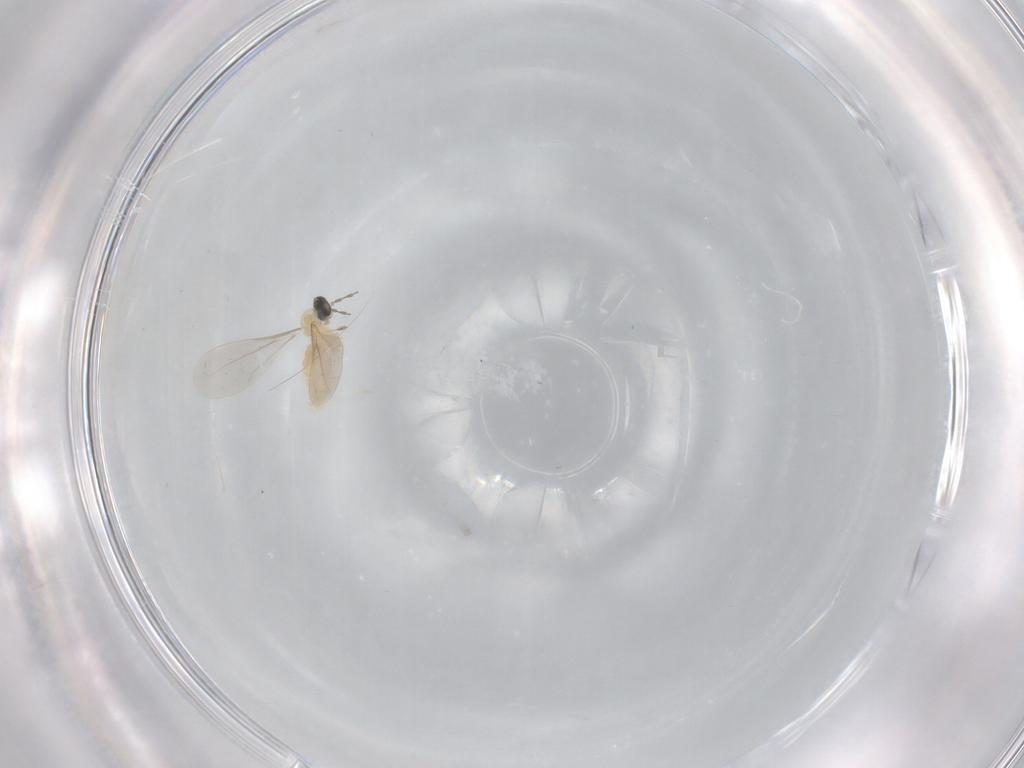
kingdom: Animalia
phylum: Arthropoda
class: Insecta
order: Diptera
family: Cecidomyiidae
